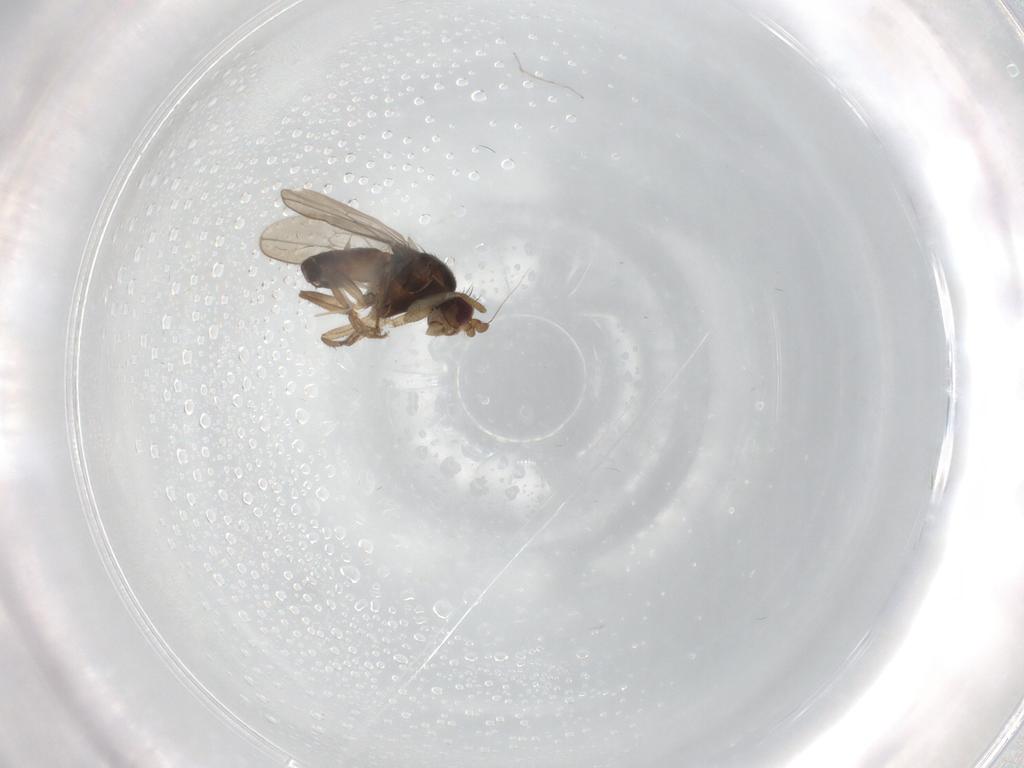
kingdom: Animalia
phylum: Arthropoda
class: Insecta
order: Diptera
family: Sphaeroceridae
